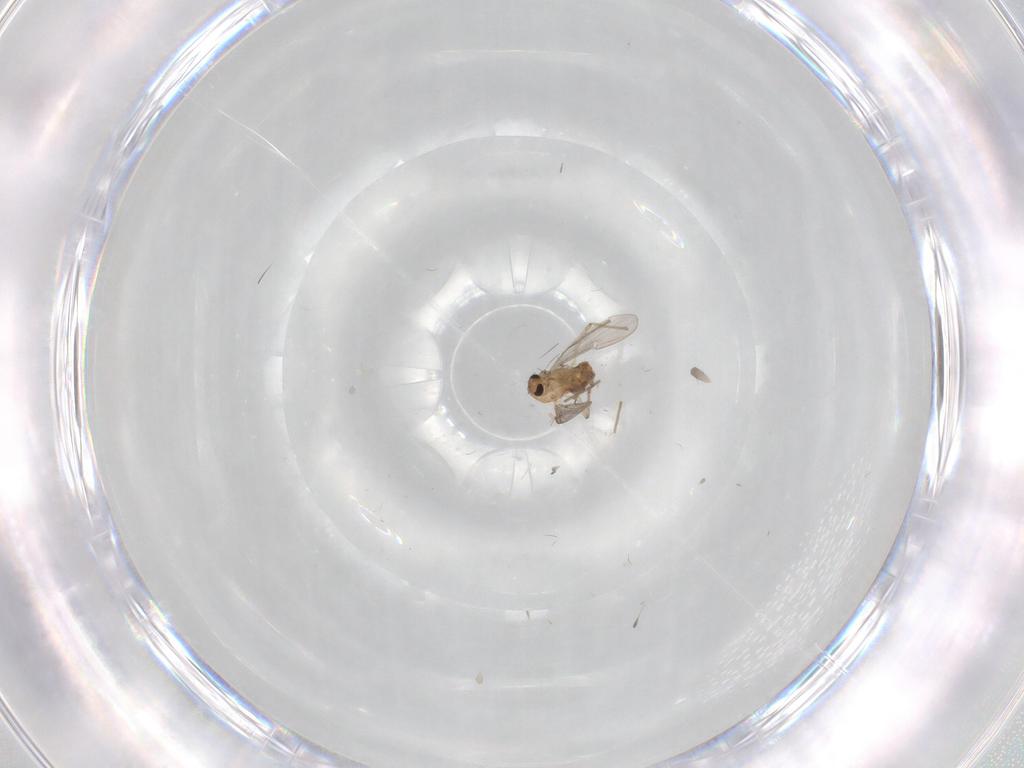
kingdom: Animalia
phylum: Arthropoda
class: Insecta
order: Diptera
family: Chironomidae
